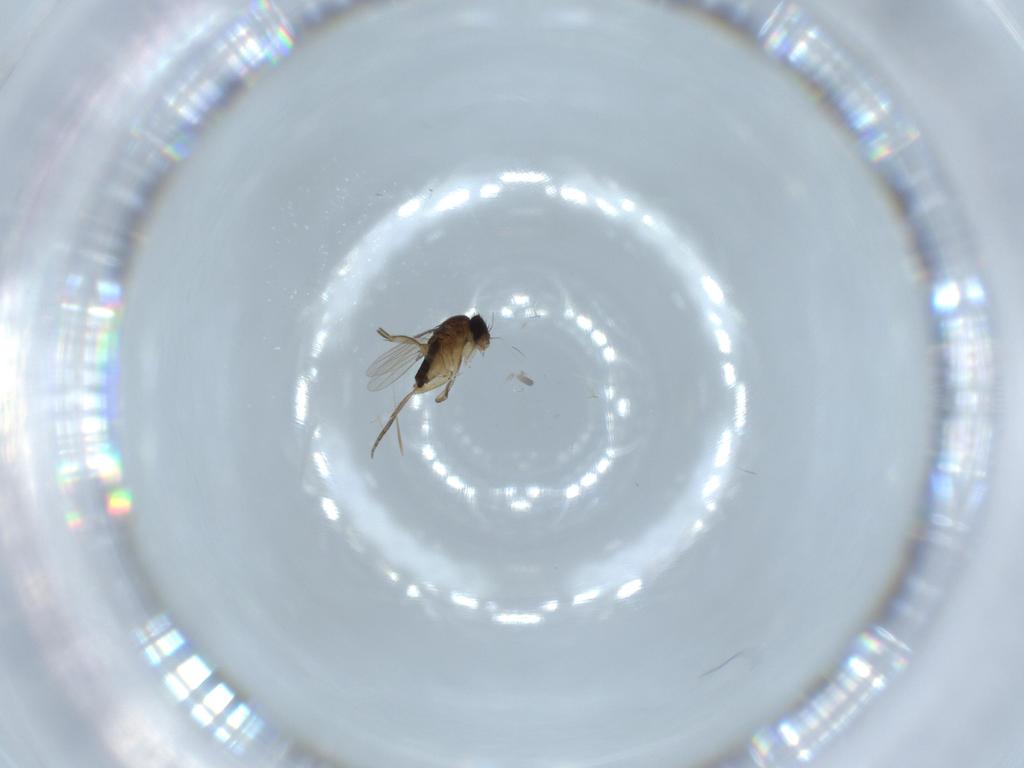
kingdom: Animalia
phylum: Arthropoda
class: Insecta
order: Diptera
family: Phoridae
